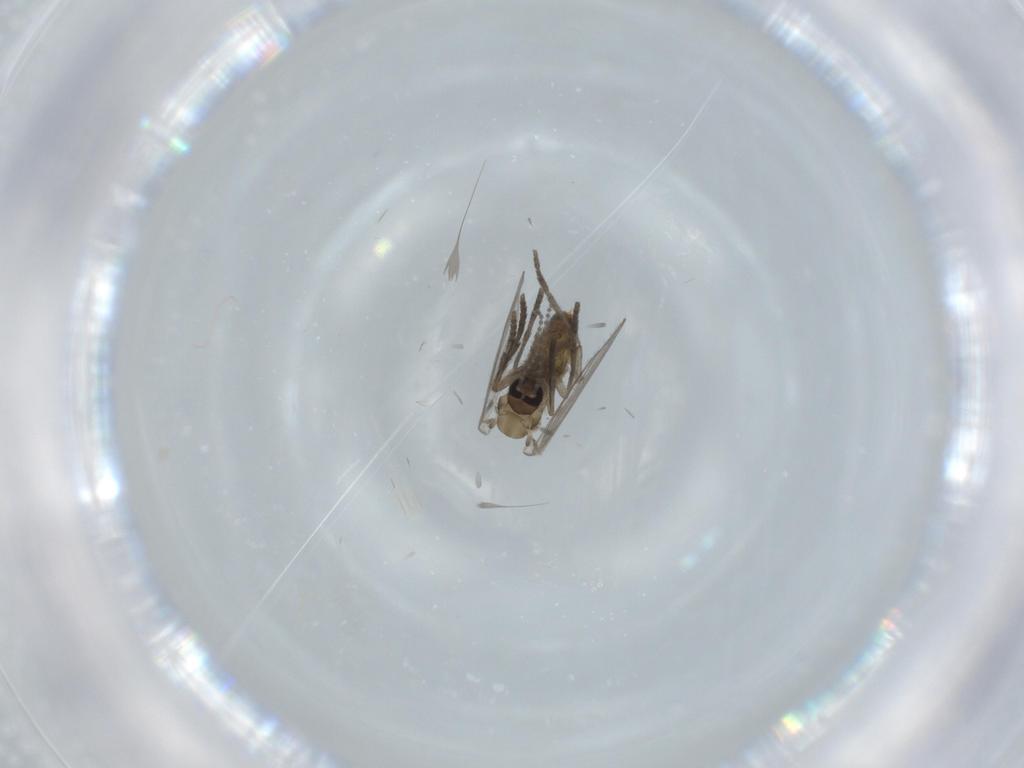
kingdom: Animalia
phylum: Arthropoda
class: Insecta
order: Diptera
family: Psychodidae
